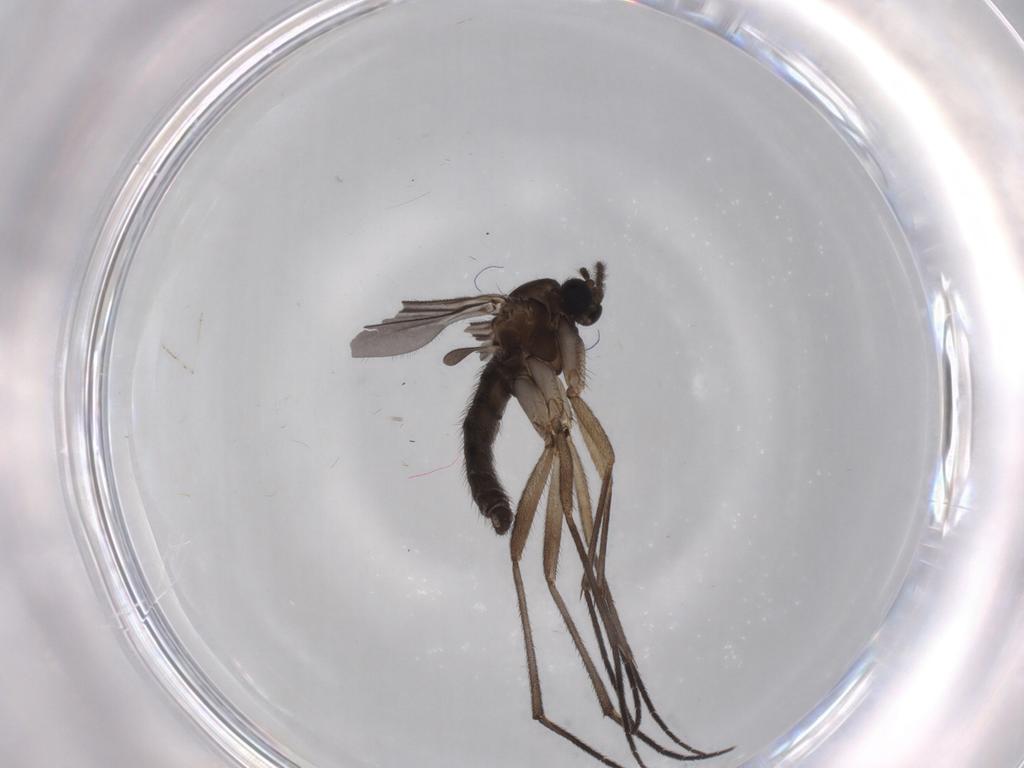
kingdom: Animalia
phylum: Arthropoda
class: Insecta
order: Diptera
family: Sciaridae
